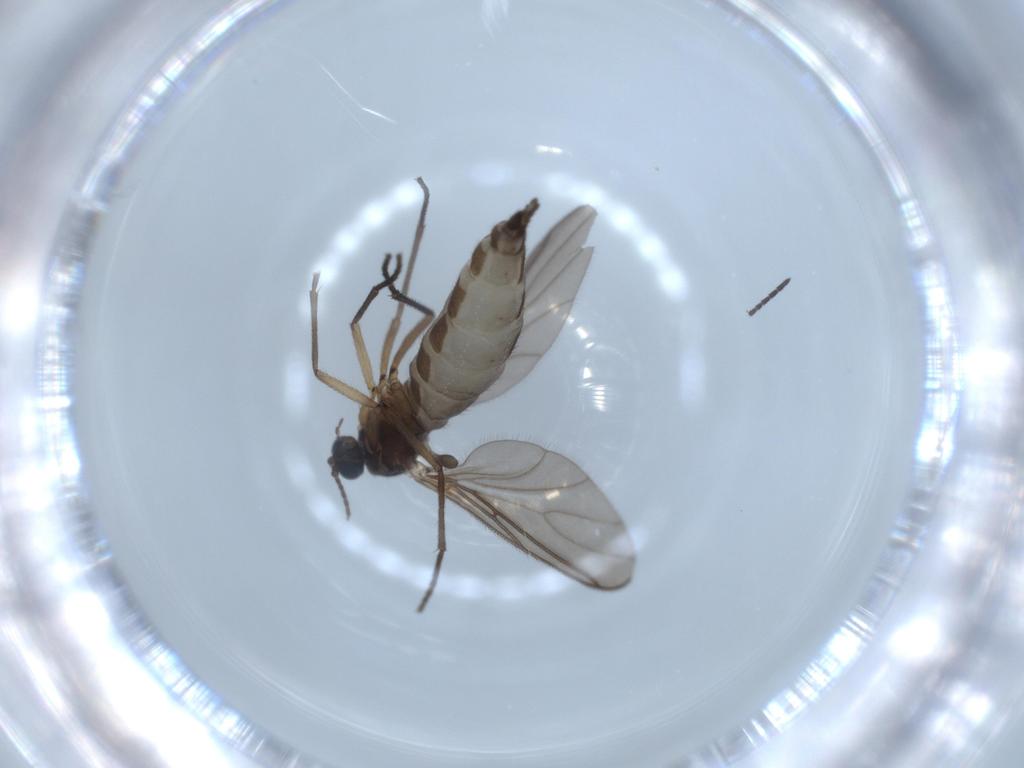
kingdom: Animalia
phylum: Arthropoda
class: Insecta
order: Diptera
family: Sciaridae
